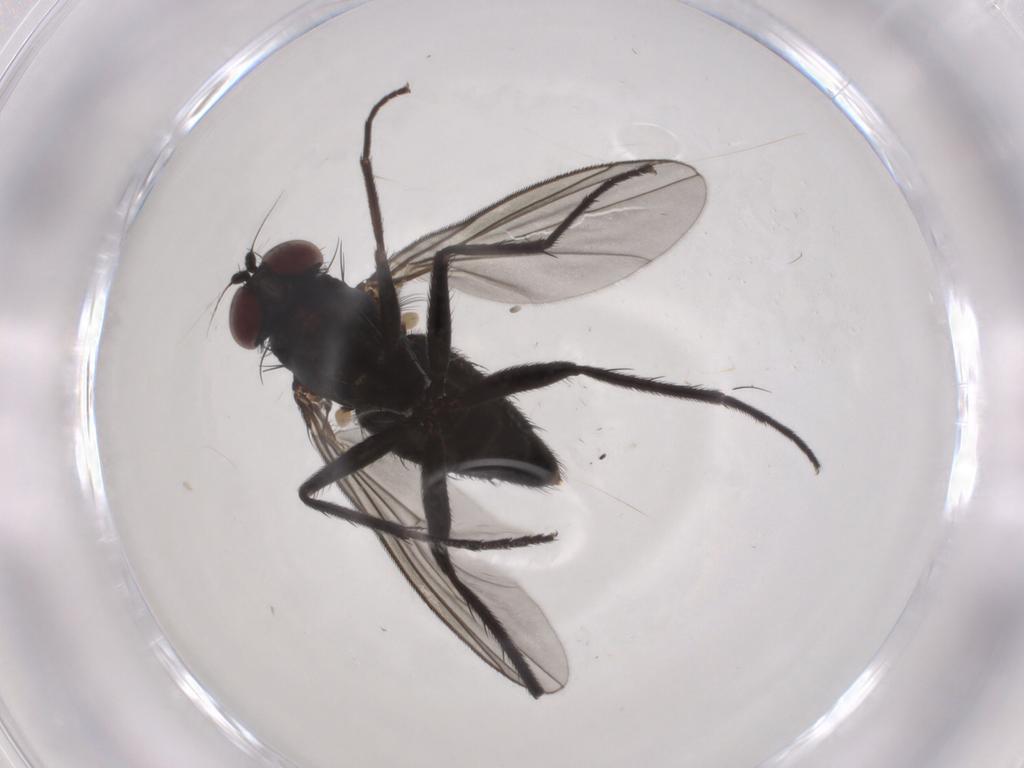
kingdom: Animalia
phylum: Arthropoda
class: Insecta
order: Diptera
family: Dolichopodidae
